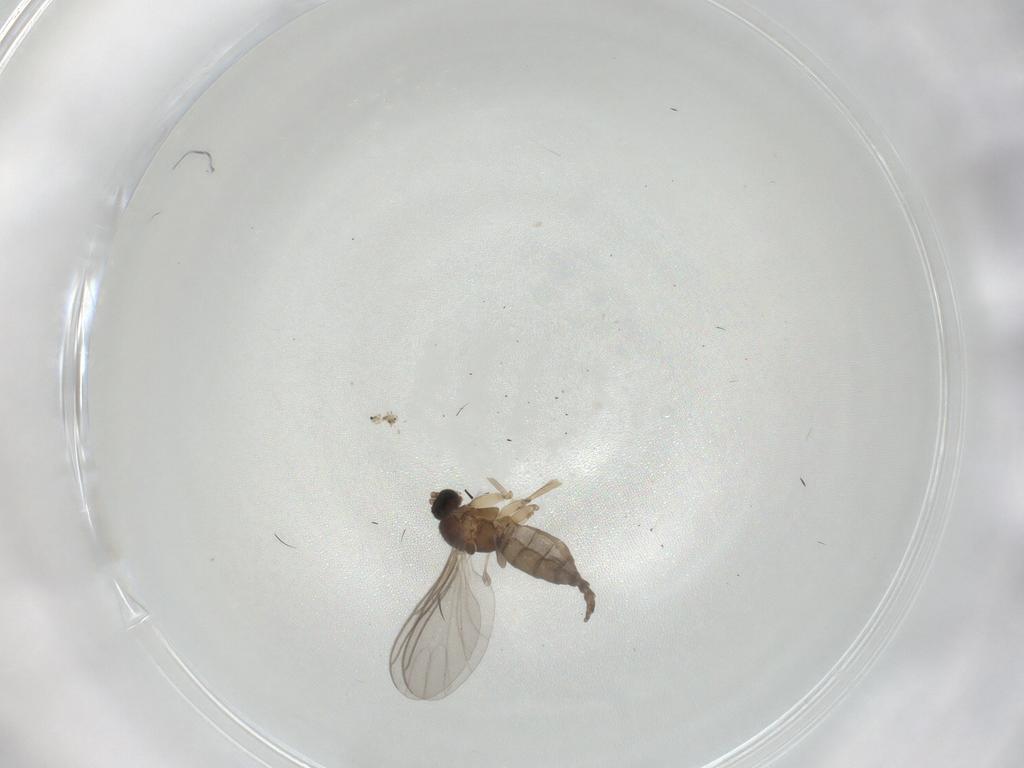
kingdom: Animalia
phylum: Arthropoda
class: Insecta
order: Diptera
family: Sciaridae
